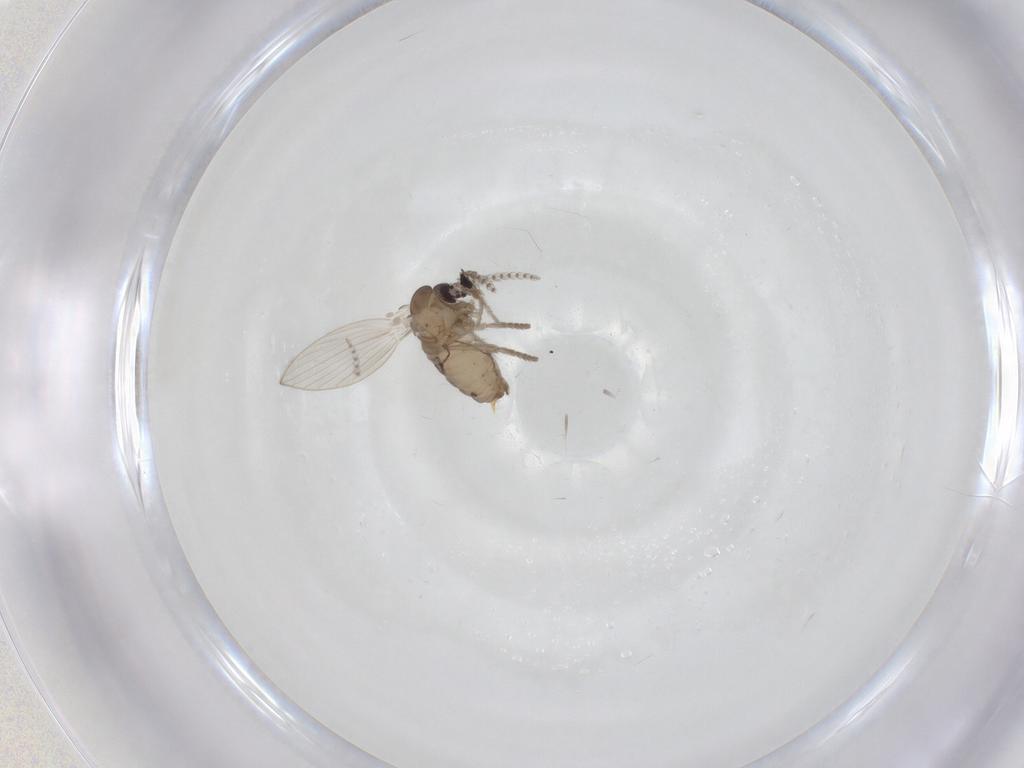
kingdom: Animalia
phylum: Arthropoda
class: Insecta
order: Diptera
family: Psychodidae
